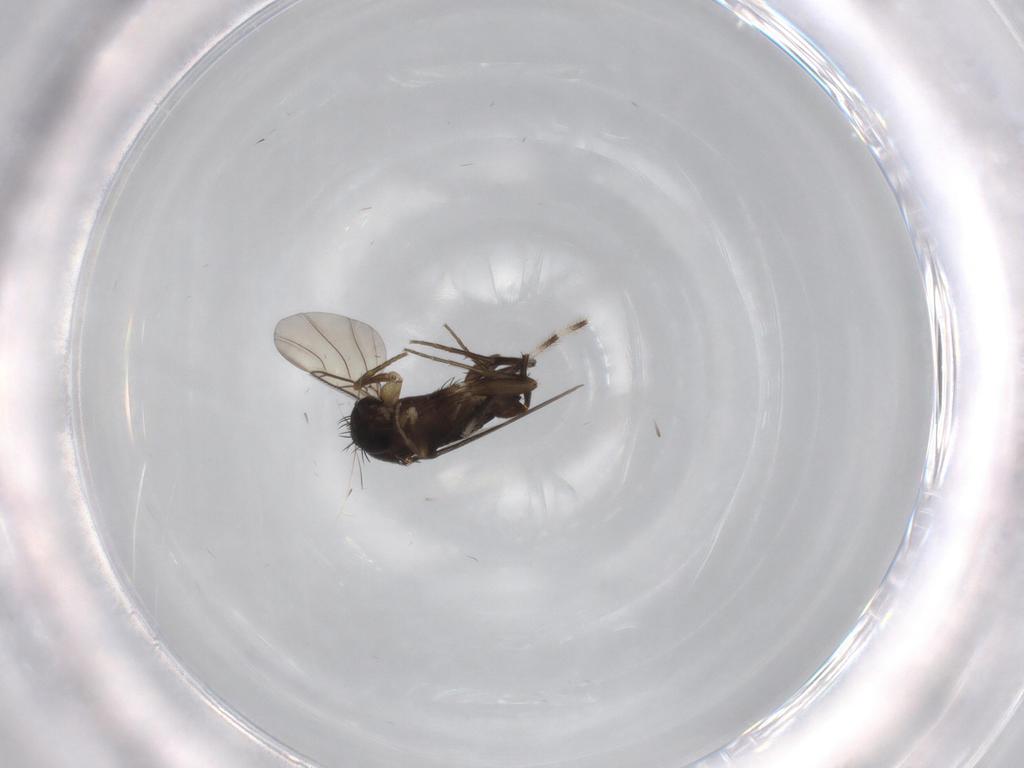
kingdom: Animalia
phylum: Arthropoda
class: Insecta
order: Diptera
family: Phoridae
